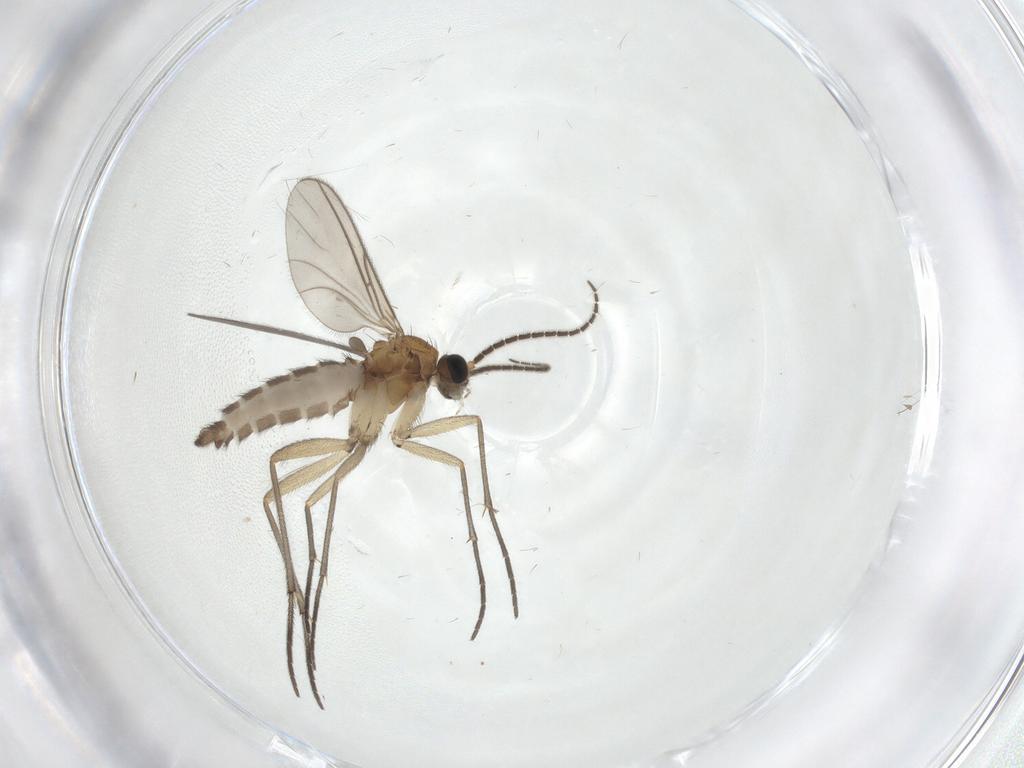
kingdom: Animalia
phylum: Arthropoda
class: Insecta
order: Diptera
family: Sciaridae
